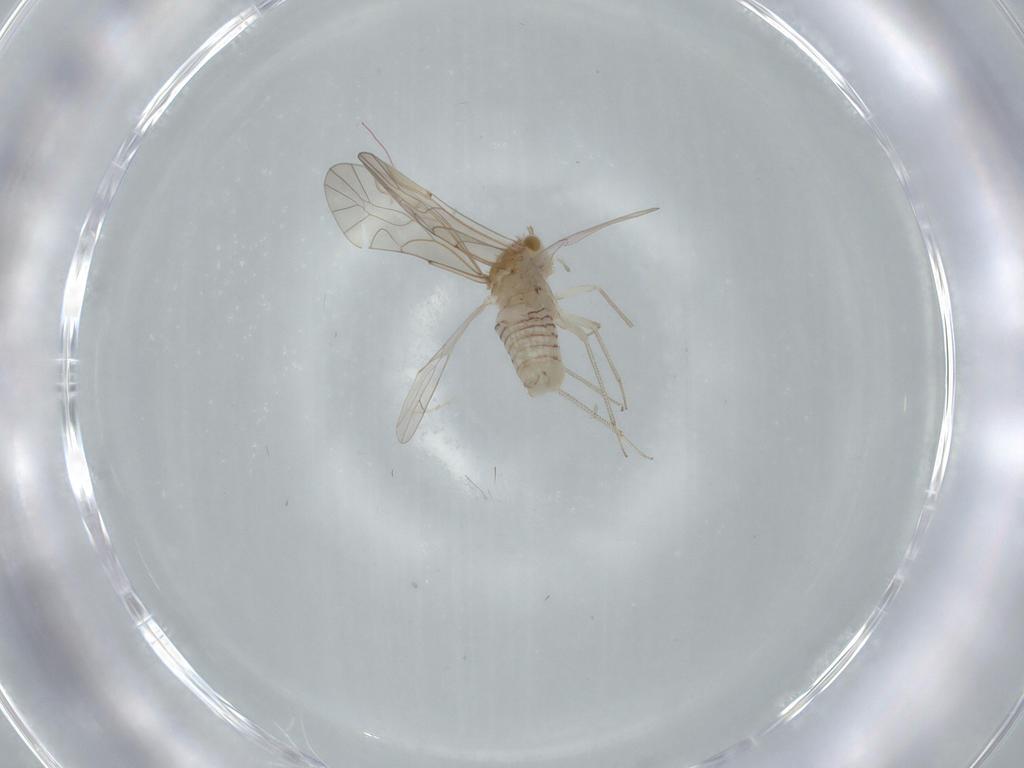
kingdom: Animalia
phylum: Arthropoda
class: Insecta
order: Psocodea
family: Lachesillidae
